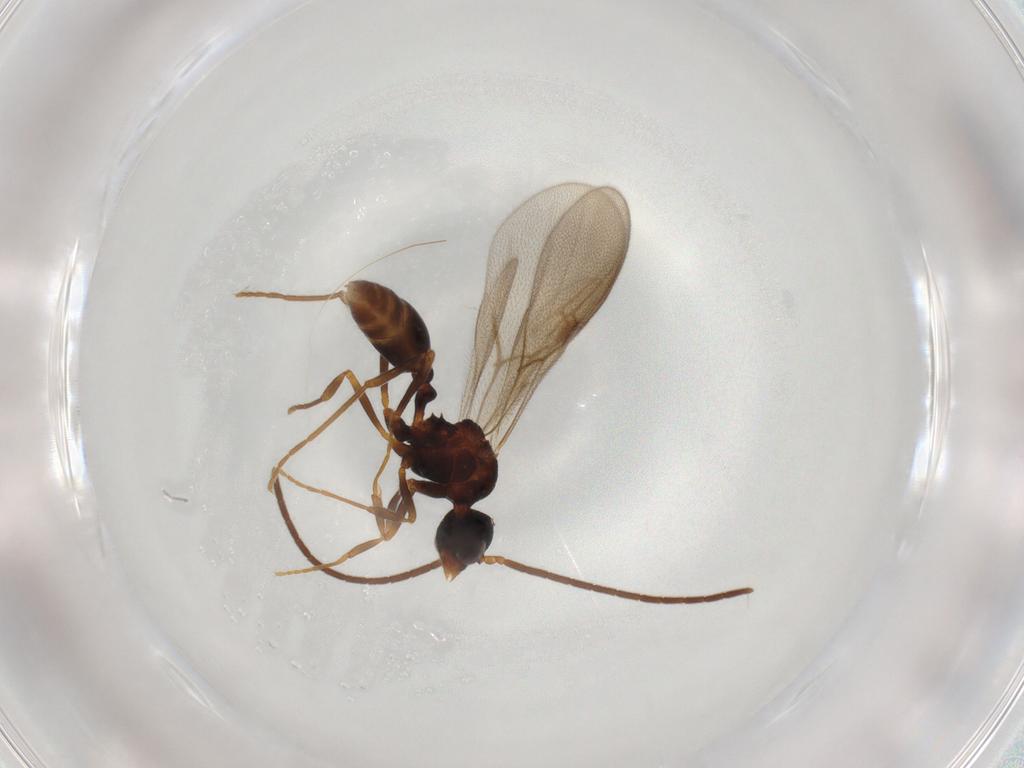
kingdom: Animalia
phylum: Arthropoda
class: Insecta
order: Hymenoptera
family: Formicidae
